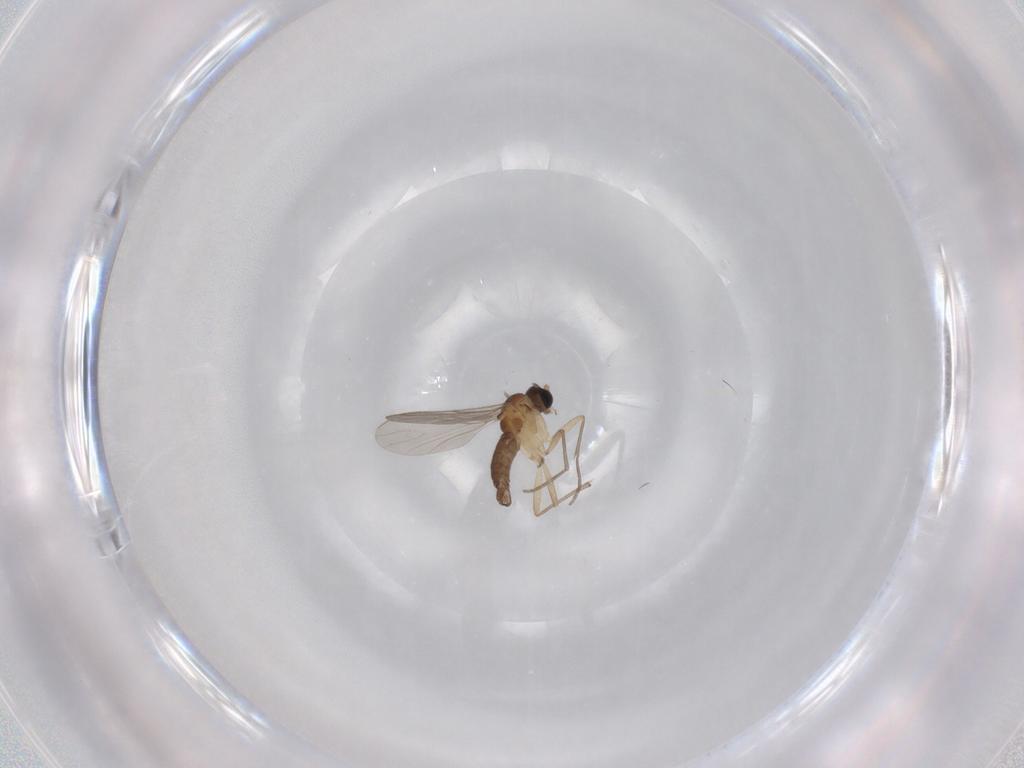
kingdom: Animalia
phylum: Arthropoda
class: Insecta
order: Diptera
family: Sciaridae
